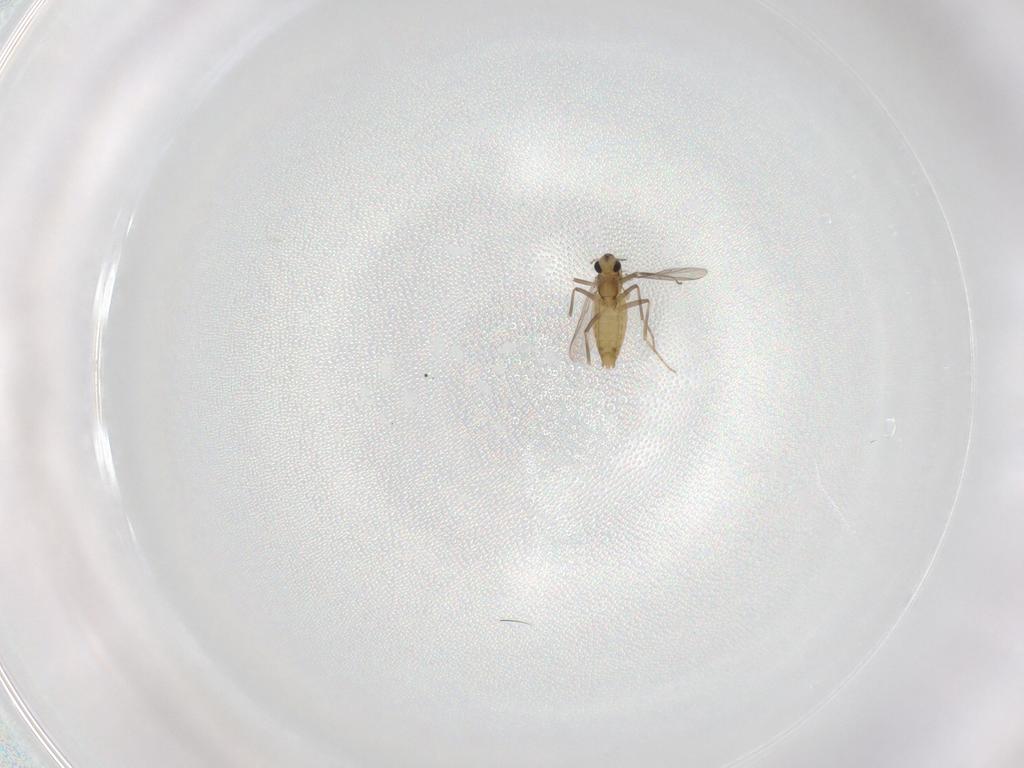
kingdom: Animalia
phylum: Arthropoda
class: Insecta
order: Diptera
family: Chironomidae
